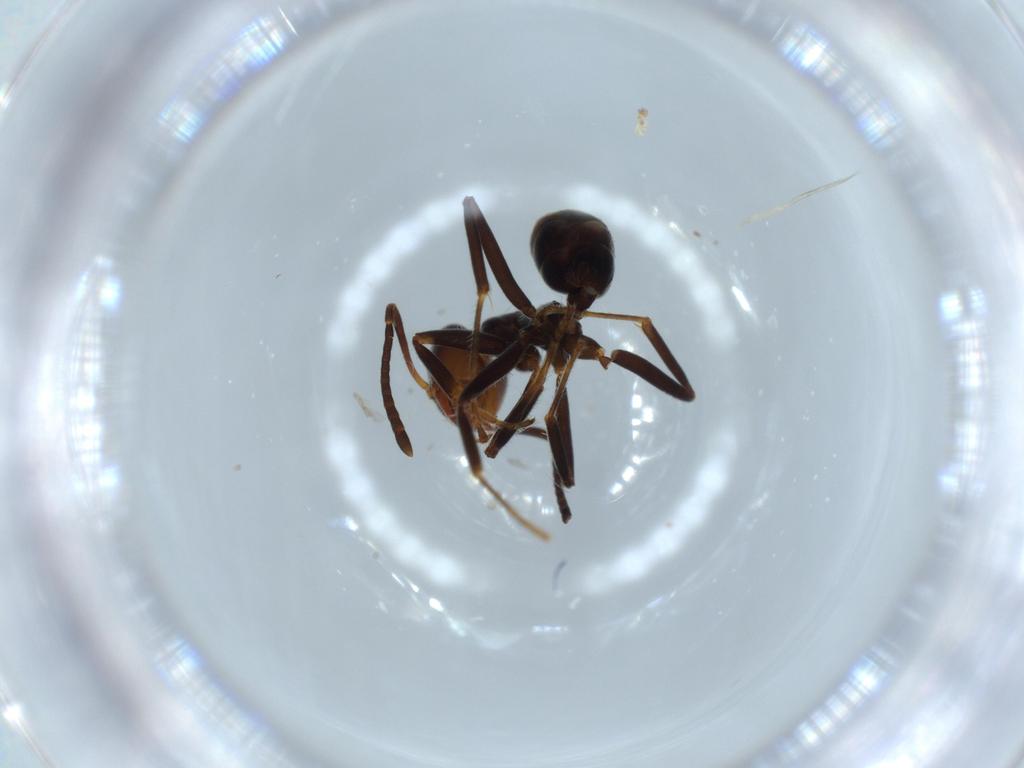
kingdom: Animalia
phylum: Arthropoda
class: Insecta
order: Hymenoptera
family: Formicidae
